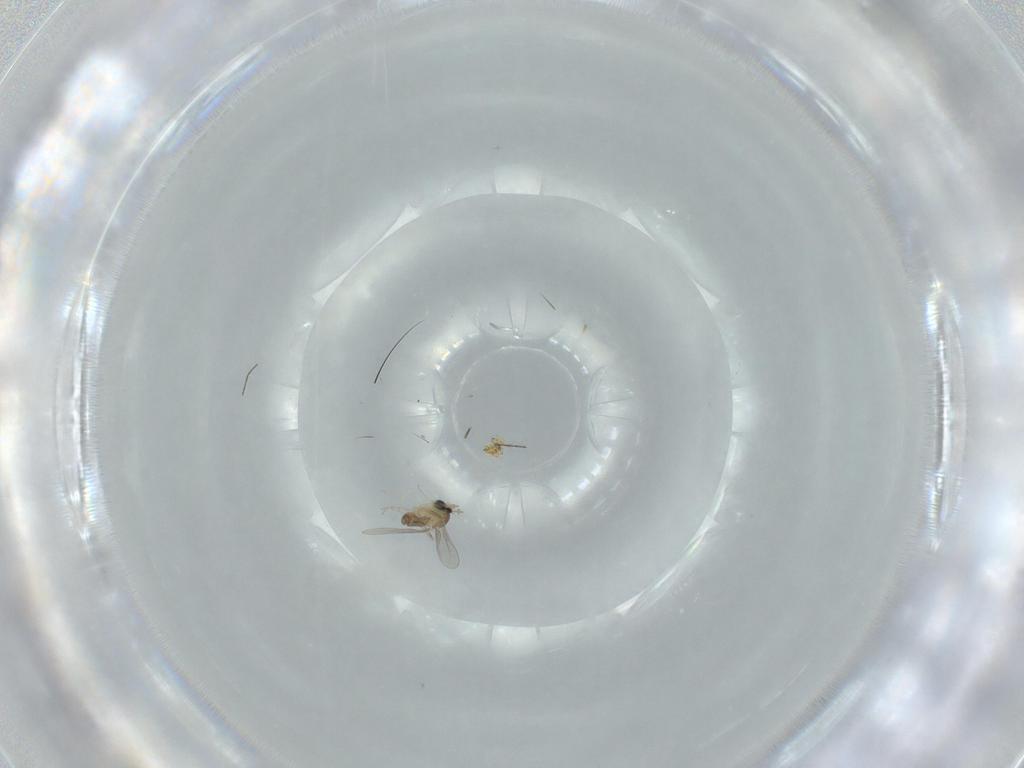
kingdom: Animalia
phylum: Arthropoda
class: Insecta
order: Diptera
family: Cecidomyiidae
